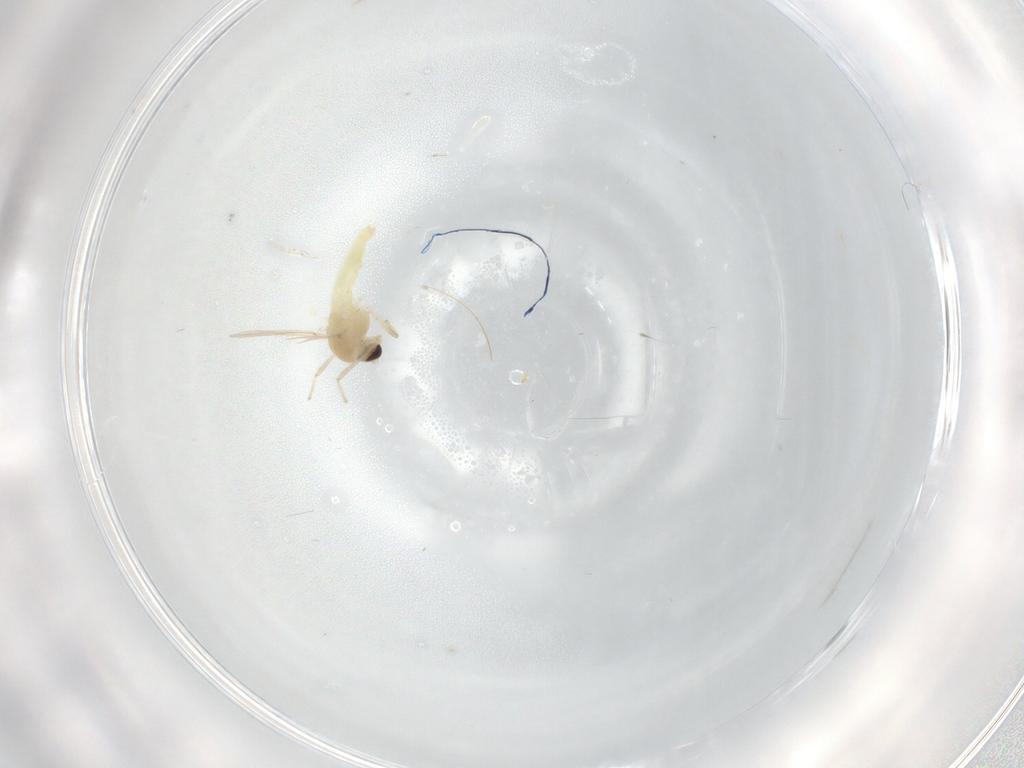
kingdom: Animalia
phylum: Arthropoda
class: Insecta
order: Diptera
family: Chironomidae
